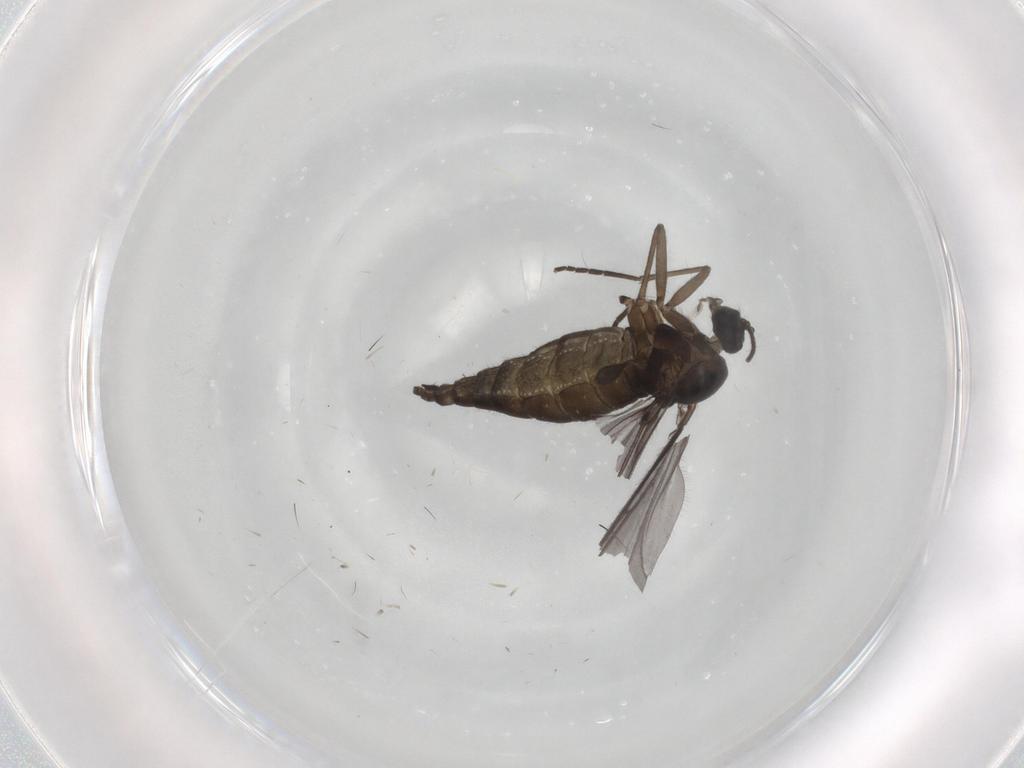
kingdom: Animalia
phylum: Arthropoda
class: Insecta
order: Diptera
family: Sciaridae
